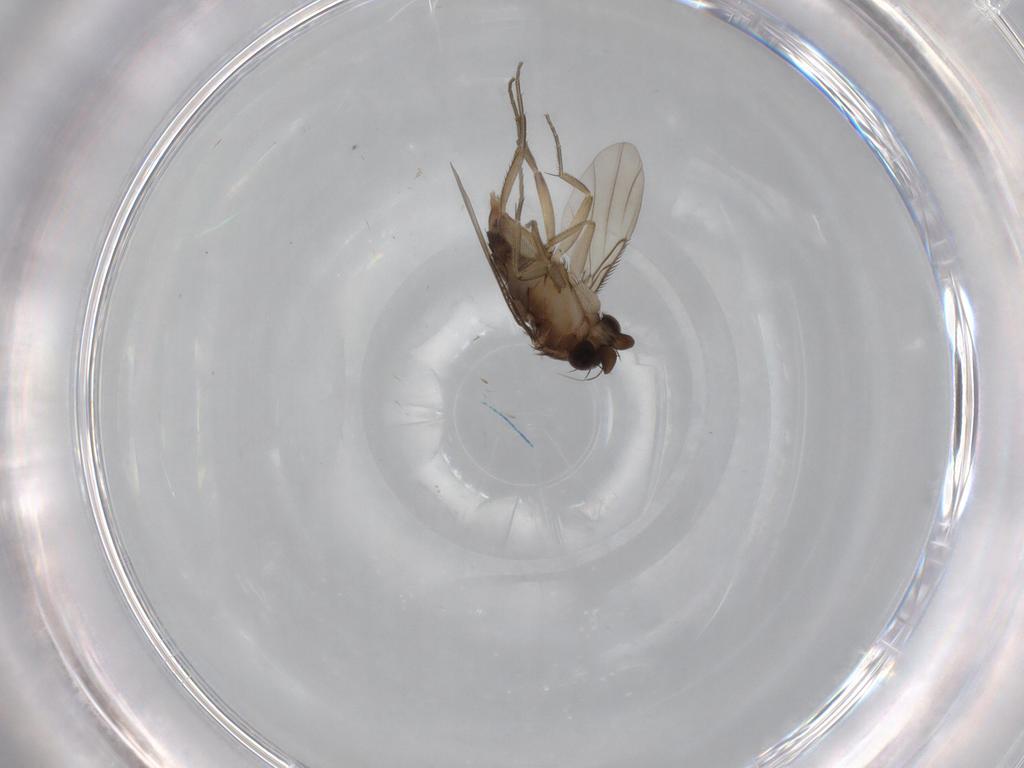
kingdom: Animalia
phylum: Arthropoda
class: Insecta
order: Diptera
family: Phoridae
